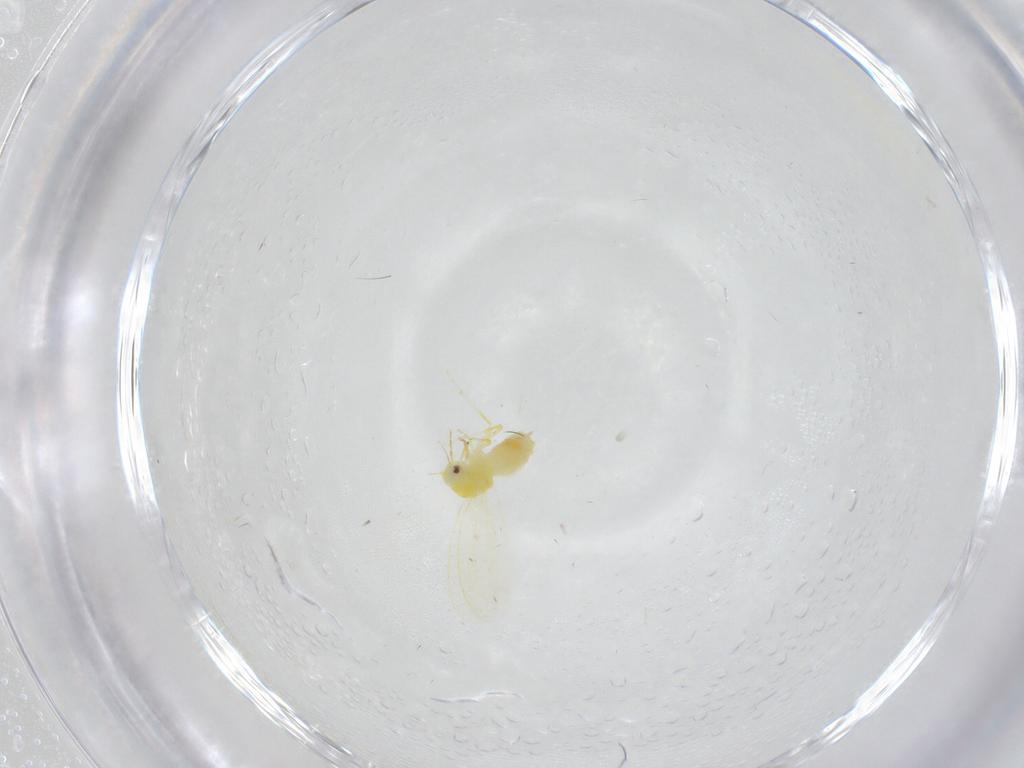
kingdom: Animalia
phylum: Arthropoda
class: Insecta
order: Hemiptera
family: Aleyrodidae
